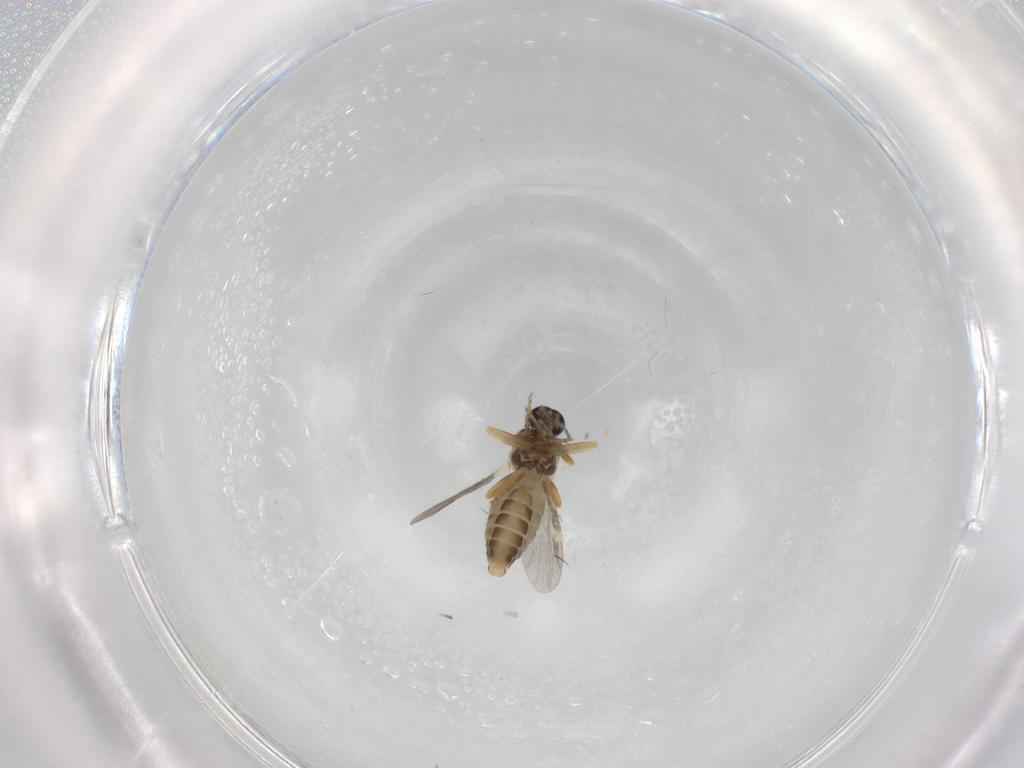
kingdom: Animalia
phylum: Arthropoda
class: Insecta
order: Diptera
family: Ceratopogonidae
